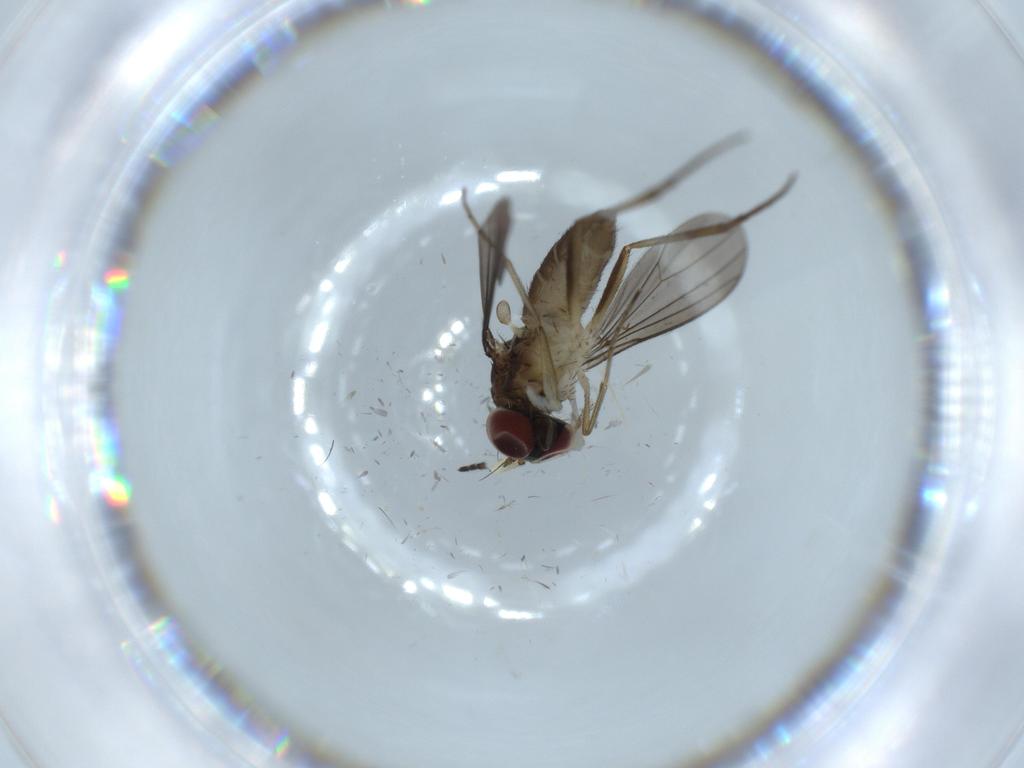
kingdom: Animalia
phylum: Arthropoda
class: Insecta
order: Diptera
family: Dolichopodidae
